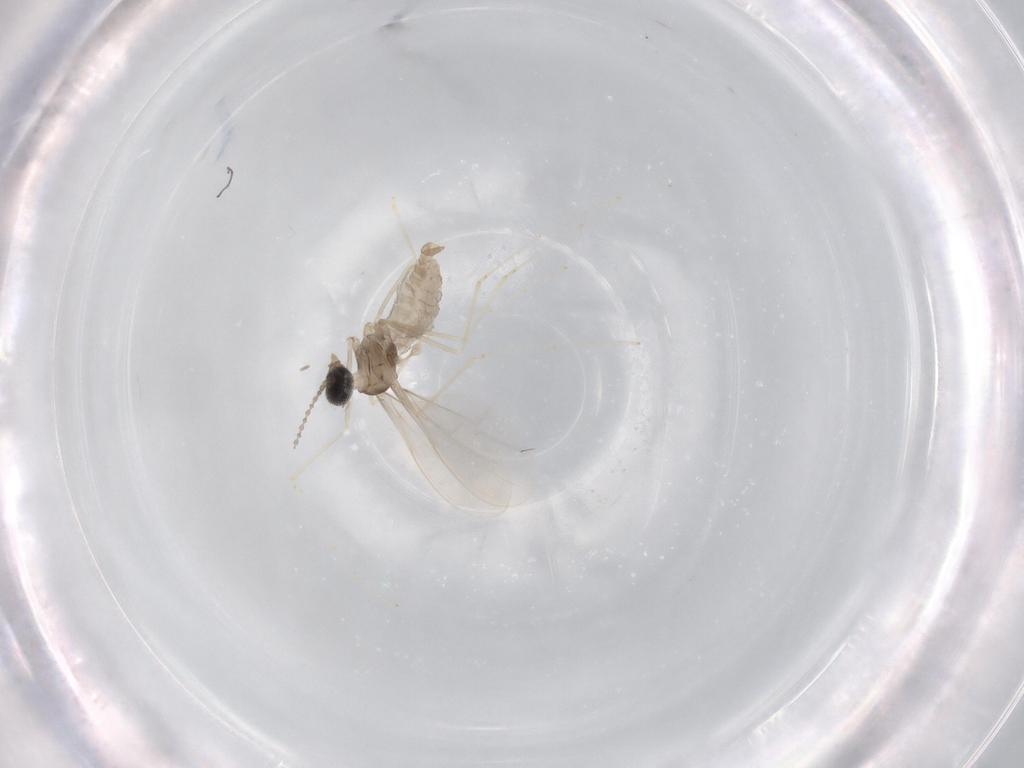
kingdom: Animalia
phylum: Arthropoda
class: Insecta
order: Diptera
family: Cecidomyiidae
